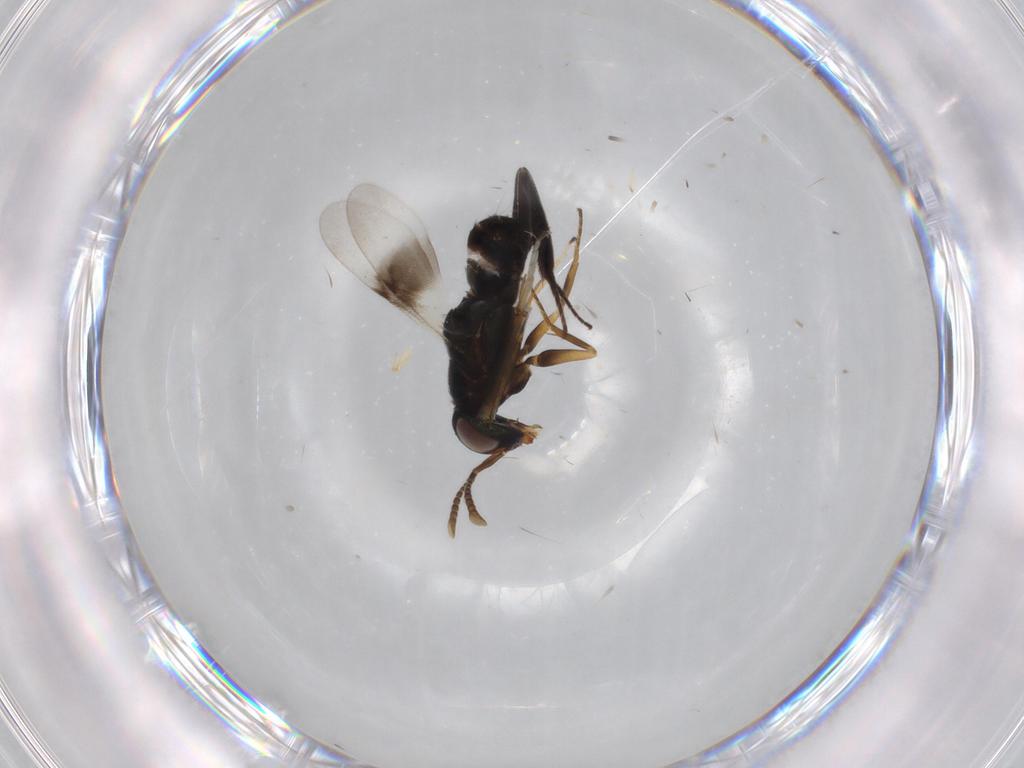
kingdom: Animalia
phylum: Arthropoda
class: Insecta
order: Hymenoptera
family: Encyrtidae
